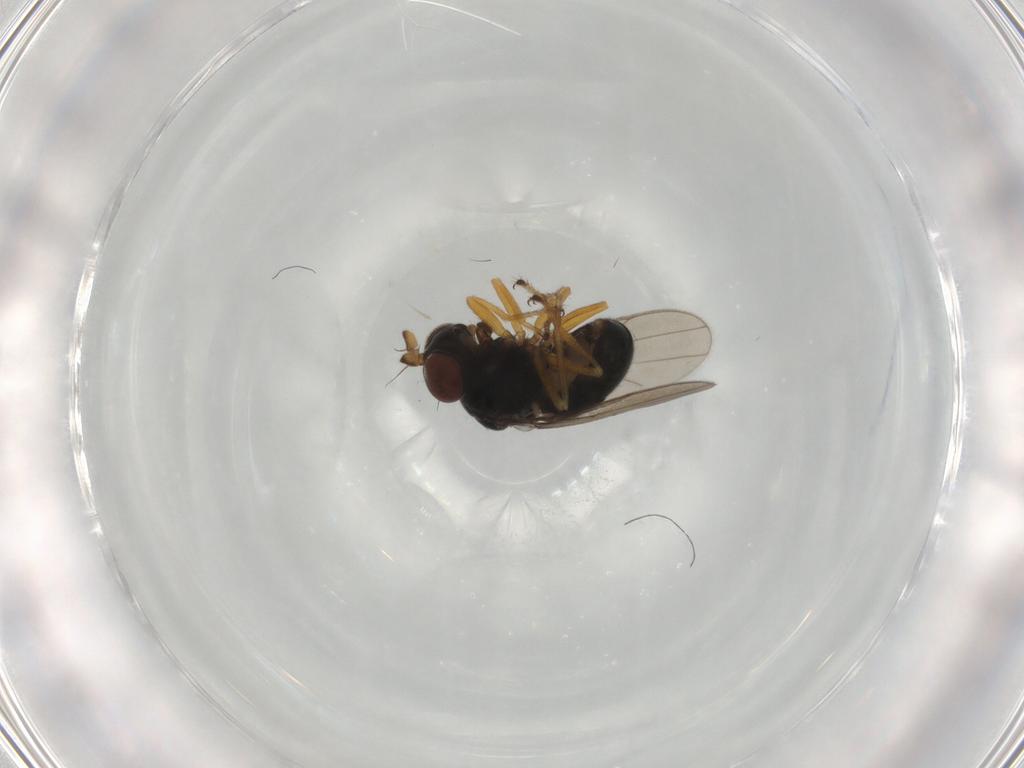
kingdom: Animalia
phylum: Arthropoda
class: Insecta
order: Diptera
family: Ephydridae
